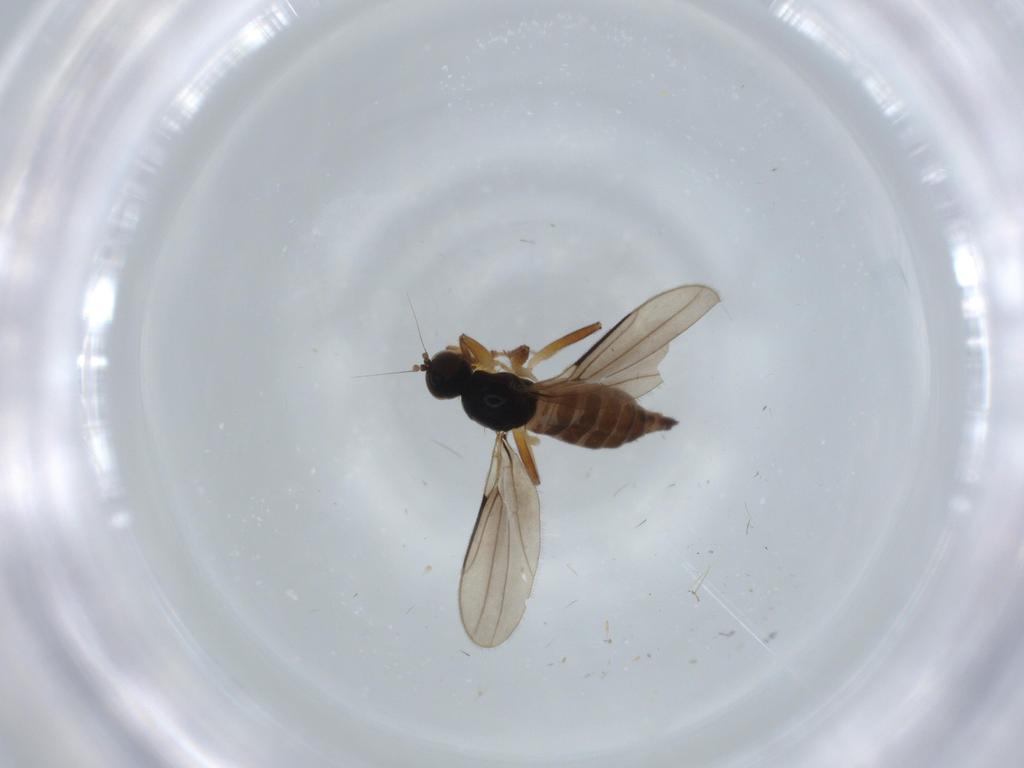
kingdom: Animalia
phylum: Arthropoda
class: Insecta
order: Diptera
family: Hybotidae
